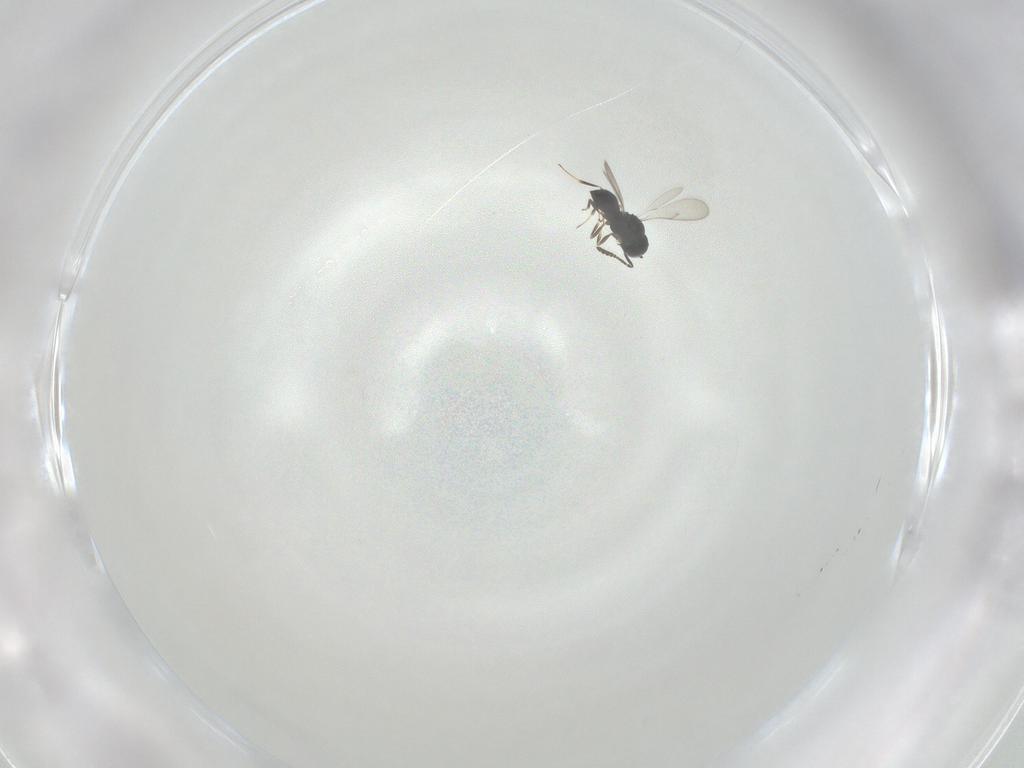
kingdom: Animalia
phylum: Arthropoda
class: Insecta
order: Hymenoptera
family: Scelionidae
